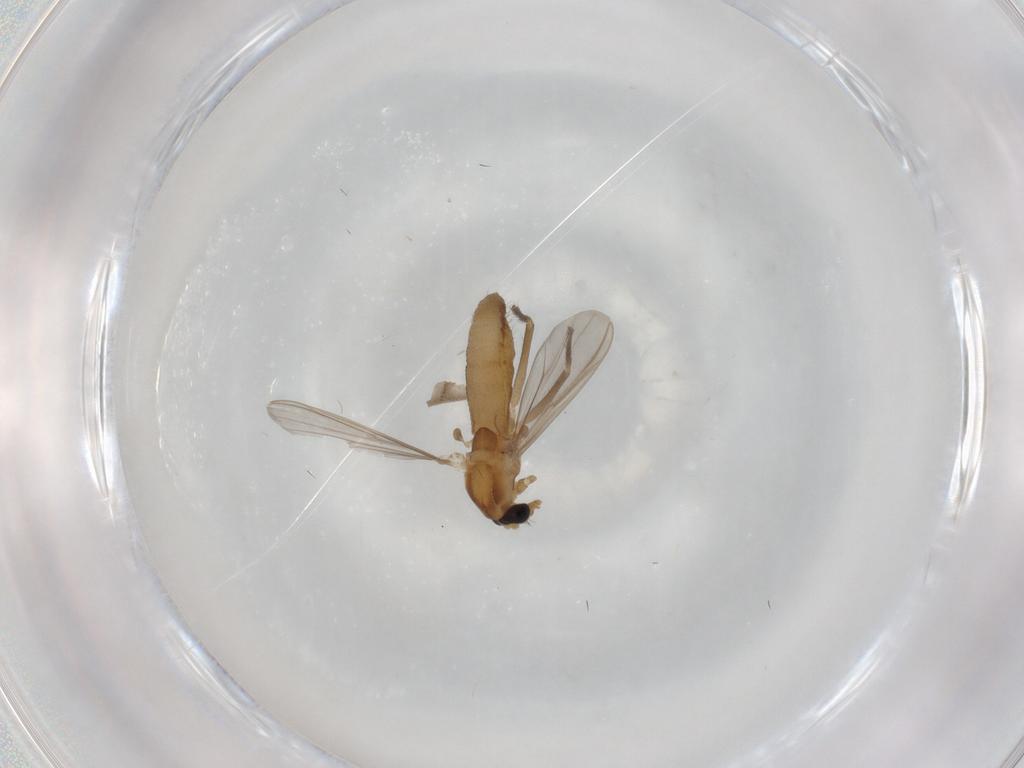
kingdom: Animalia
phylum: Arthropoda
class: Insecta
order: Diptera
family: Chironomidae
